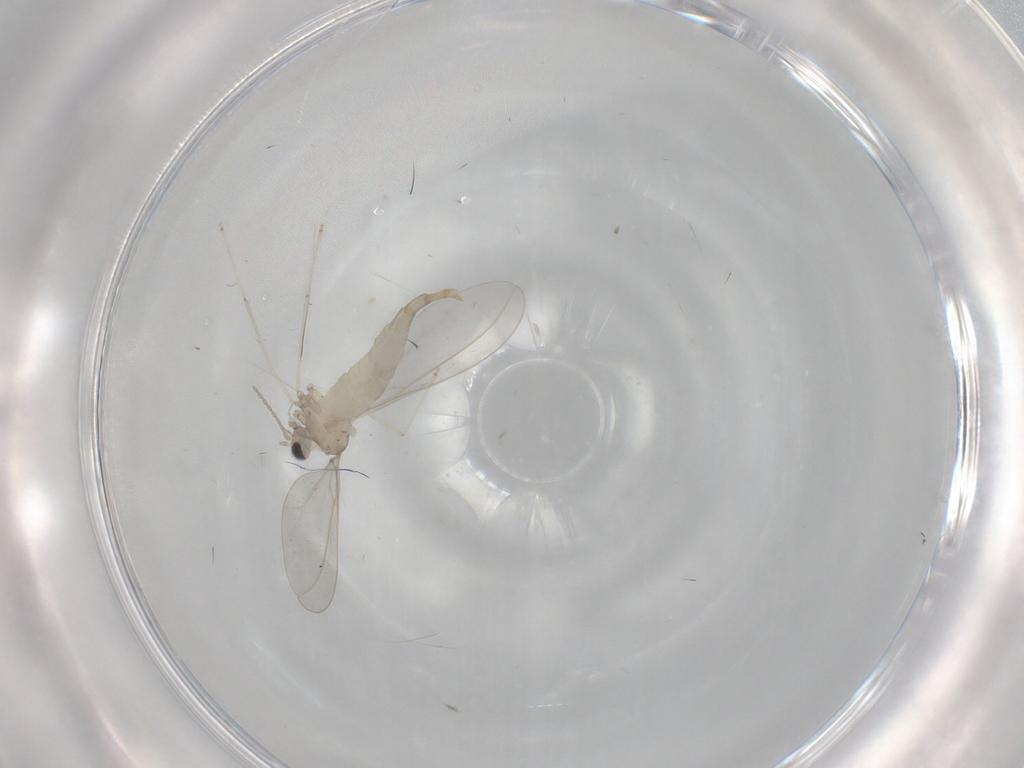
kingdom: Animalia
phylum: Arthropoda
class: Insecta
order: Diptera
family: Cecidomyiidae
